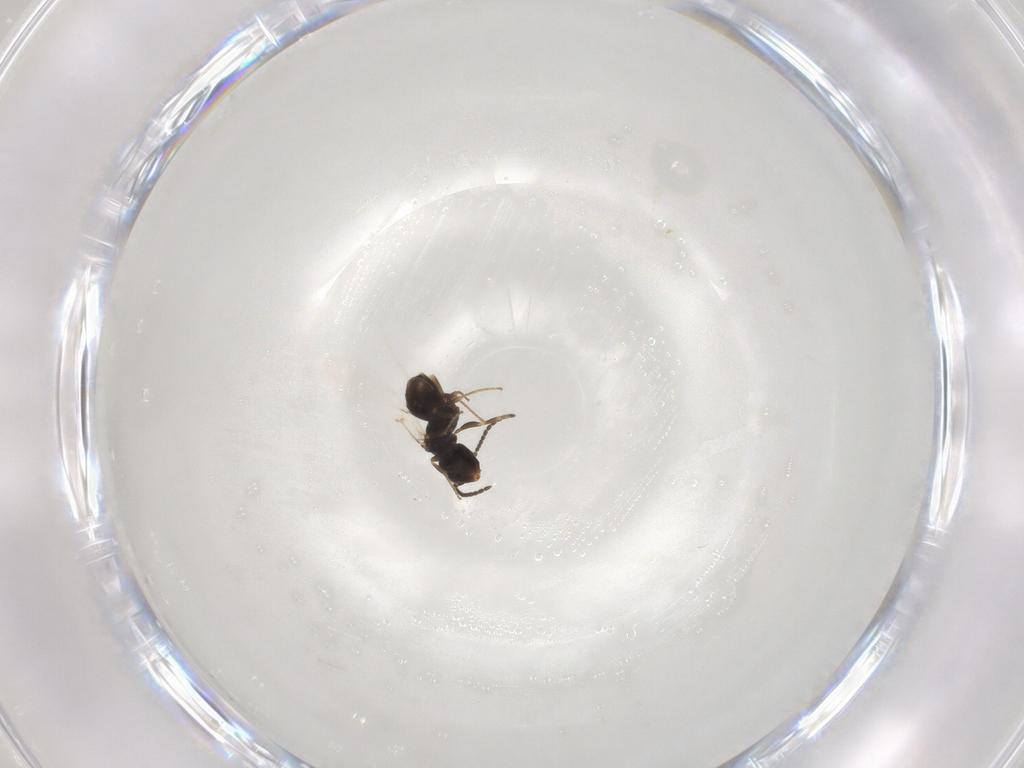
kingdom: Animalia
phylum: Arthropoda
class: Insecta
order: Hymenoptera
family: Bethylidae
